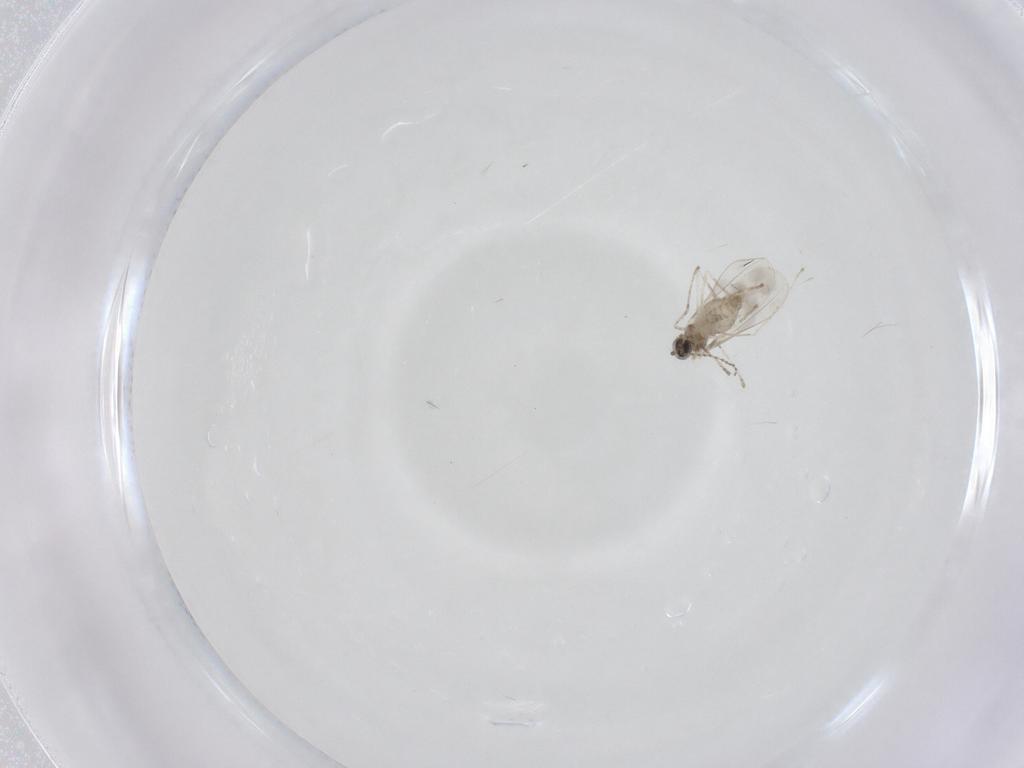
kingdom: Animalia
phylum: Arthropoda
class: Insecta
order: Diptera
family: Cecidomyiidae
